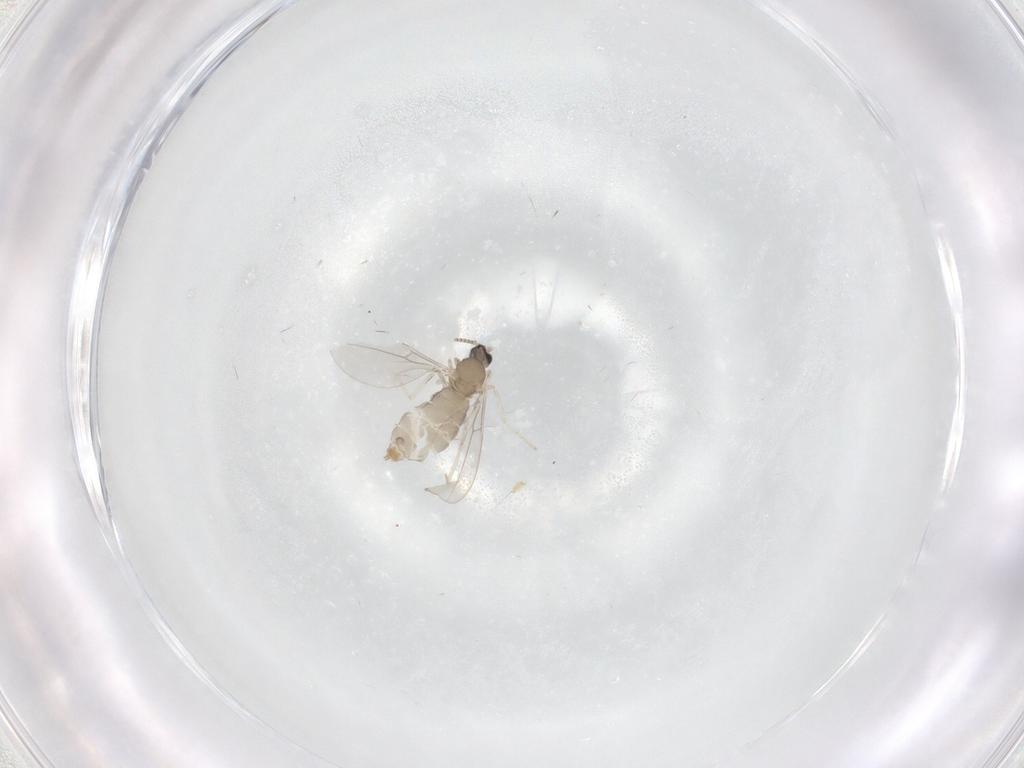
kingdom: Animalia
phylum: Arthropoda
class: Insecta
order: Diptera
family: Cecidomyiidae
